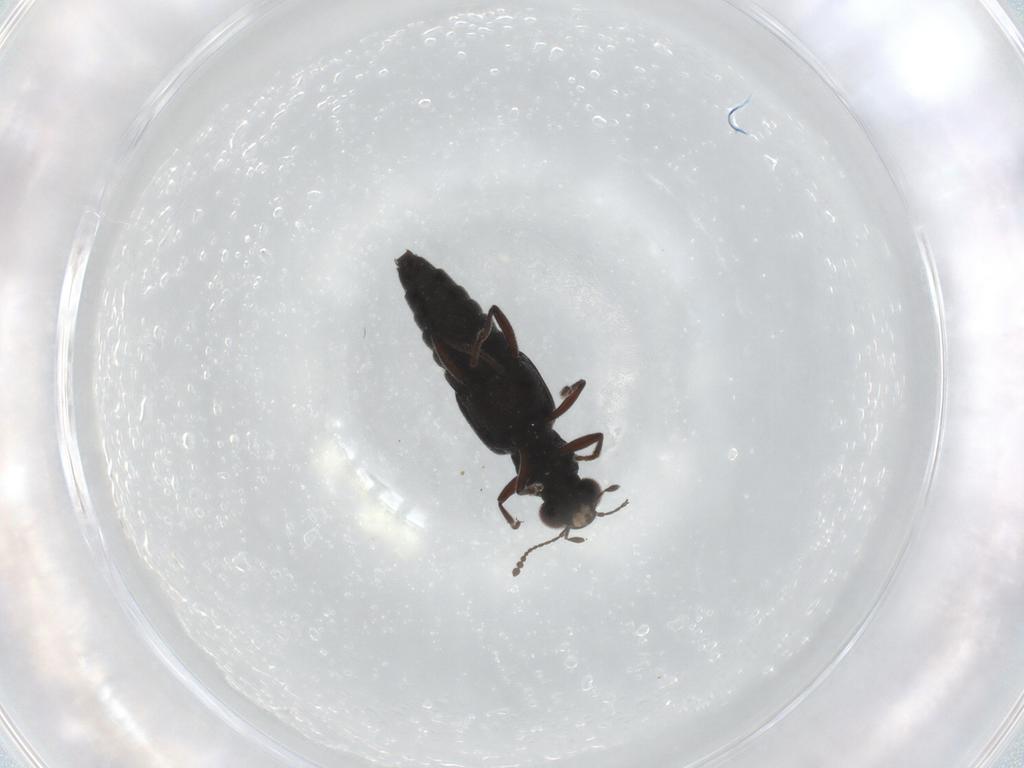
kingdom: Animalia
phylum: Arthropoda
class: Insecta
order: Coleoptera
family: Staphylinidae
